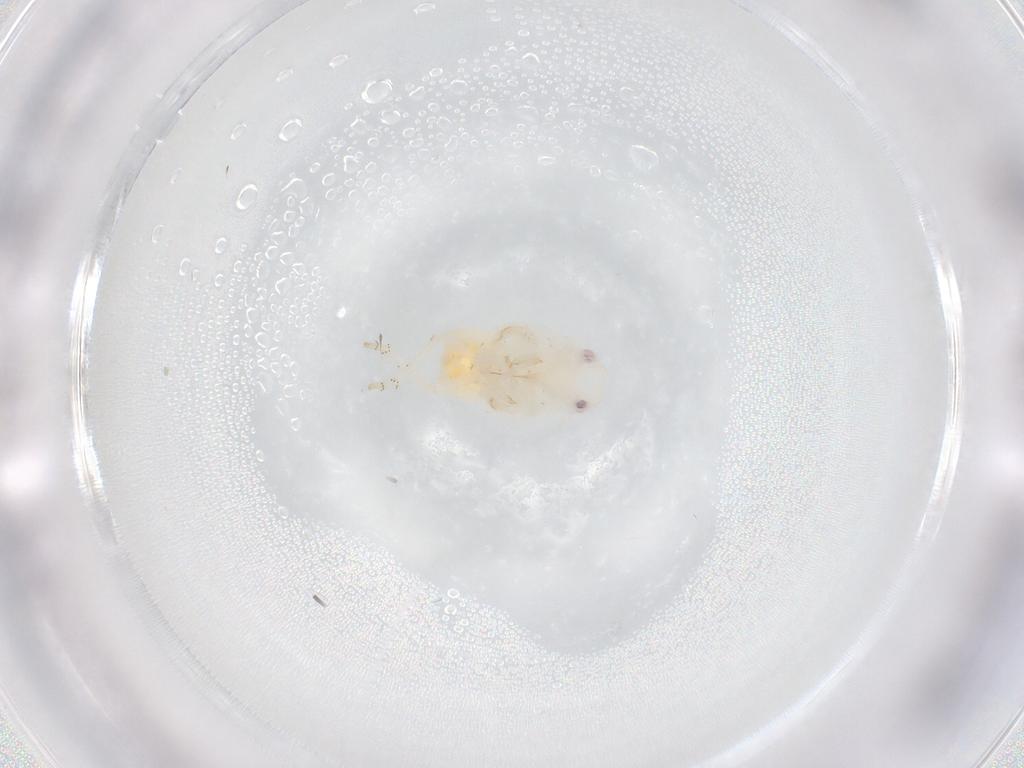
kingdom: Animalia
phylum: Arthropoda
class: Insecta
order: Hemiptera
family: Flatidae
